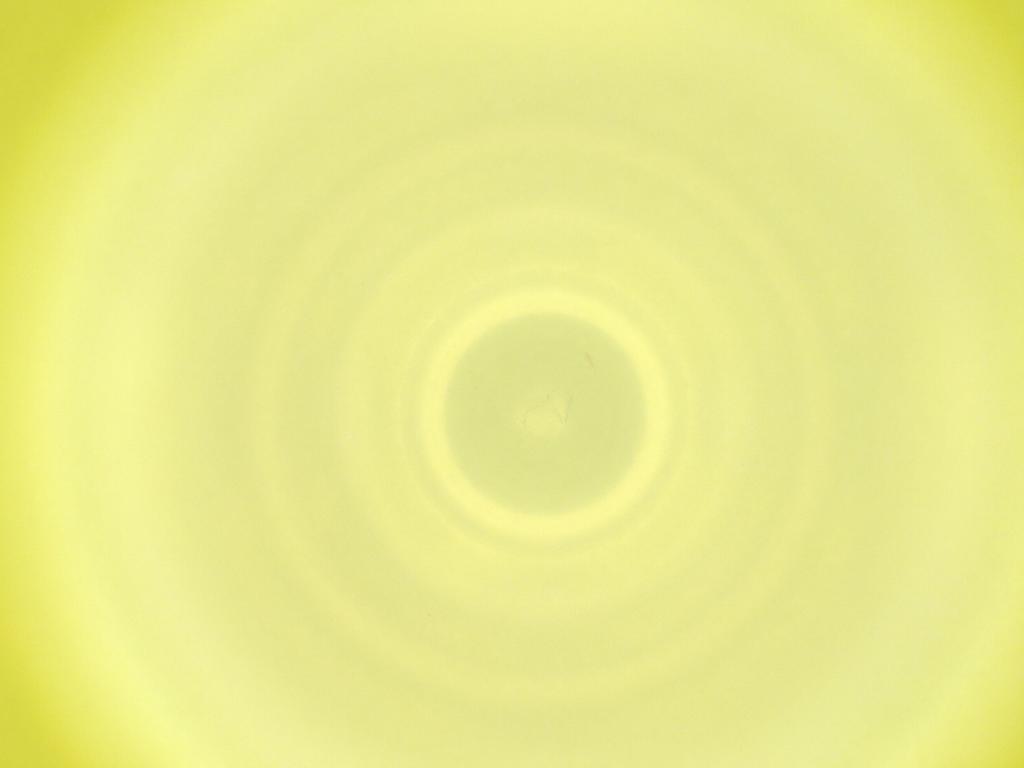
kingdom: Animalia
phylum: Arthropoda
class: Insecta
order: Diptera
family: Cecidomyiidae
